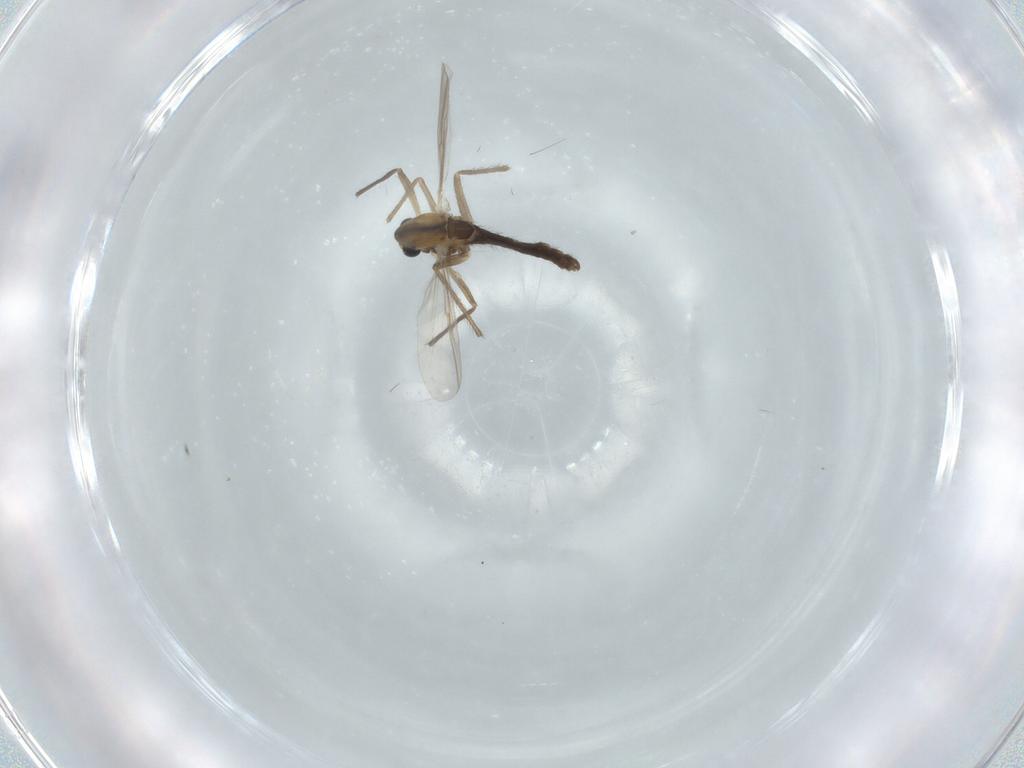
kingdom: Animalia
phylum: Arthropoda
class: Insecta
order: Diptera
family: Chironomidae
